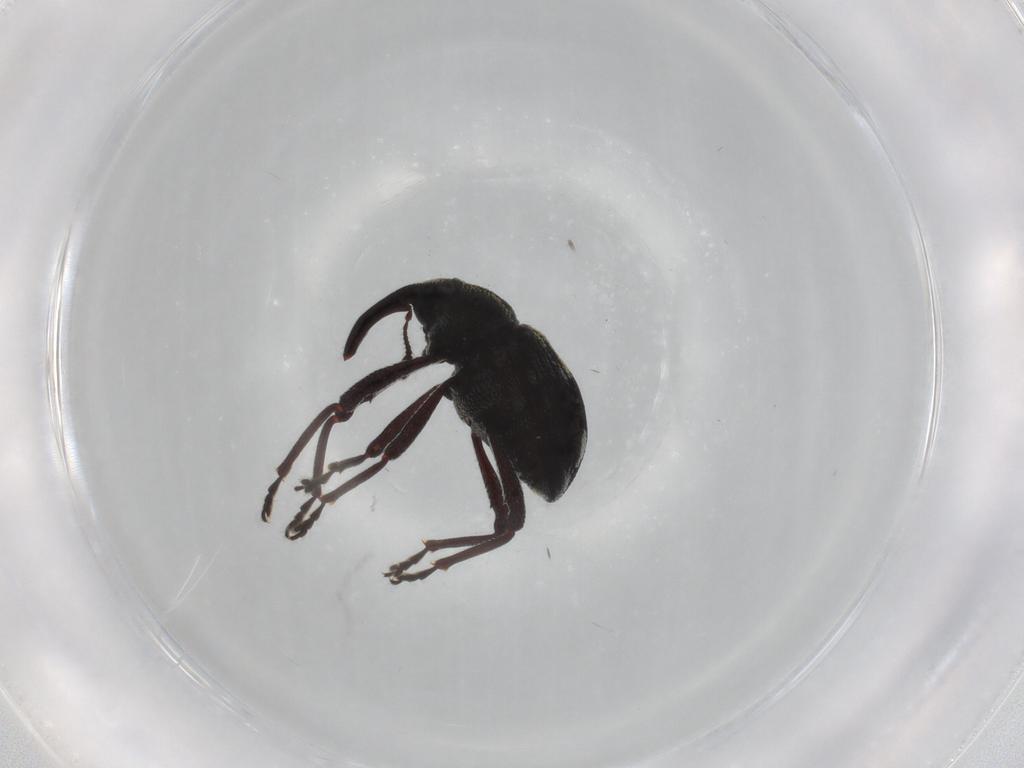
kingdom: Animalia
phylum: Arthropoda
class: Insecta
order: Coleoptera
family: Curculionidae
